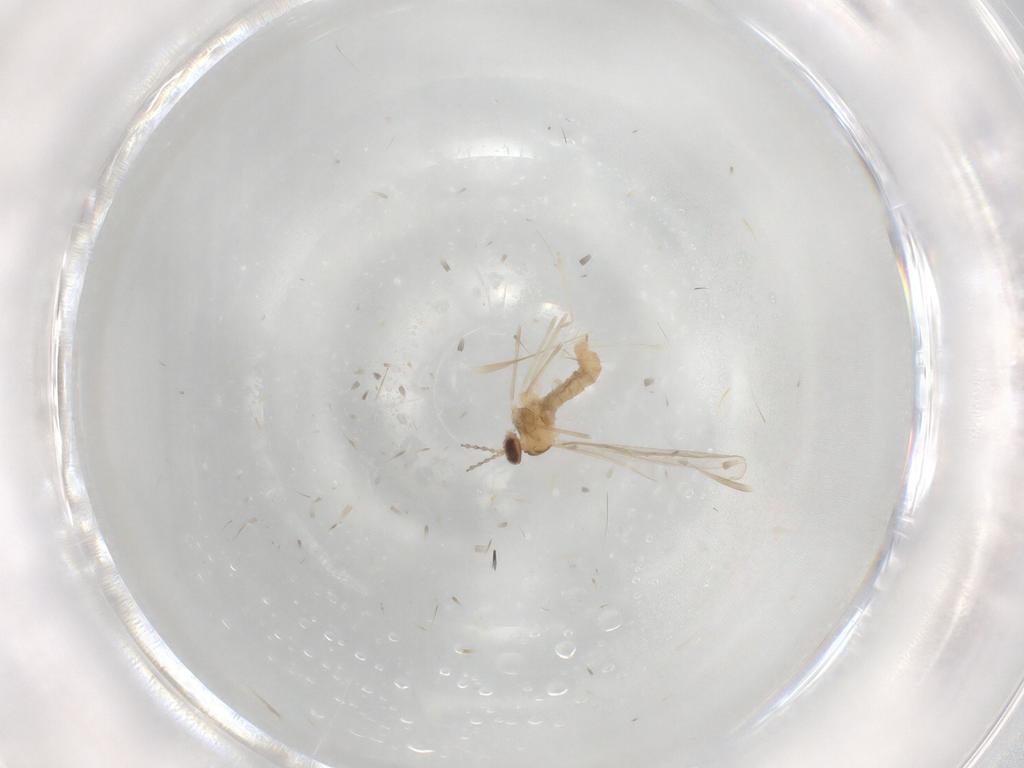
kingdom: Animalia
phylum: Arthropoda
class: Insecta
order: Diptera
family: Cecidomyiidae
